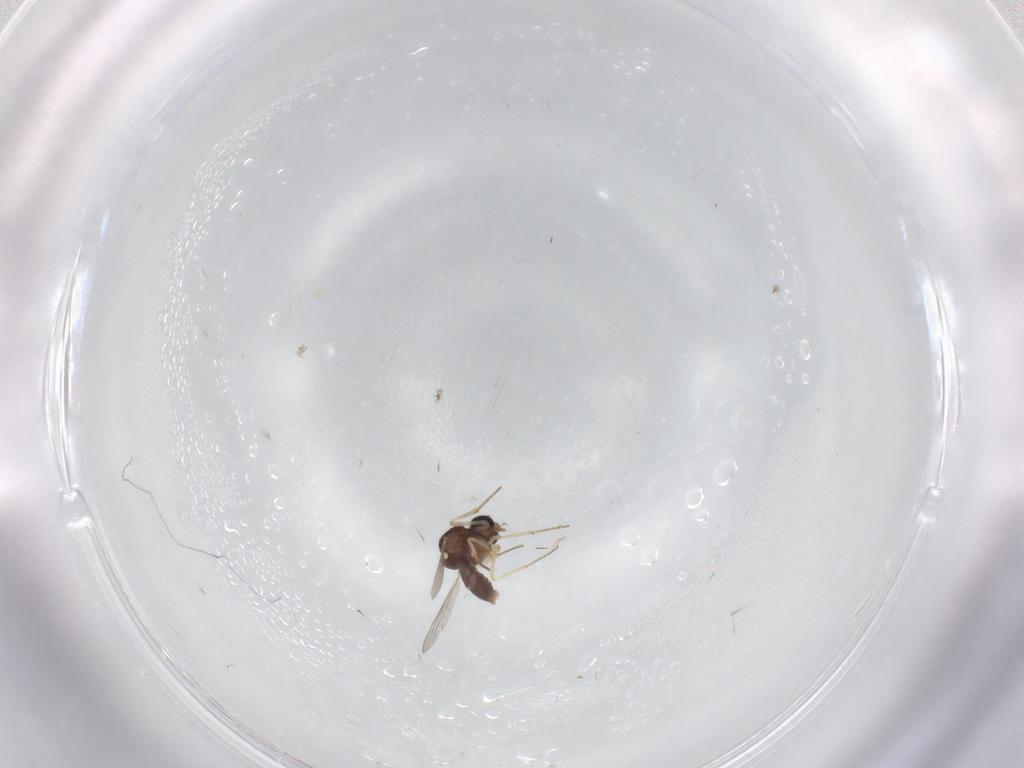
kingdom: Animalia
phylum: Arthropoda
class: Insecta
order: Diptera
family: Ceratopogonidae
